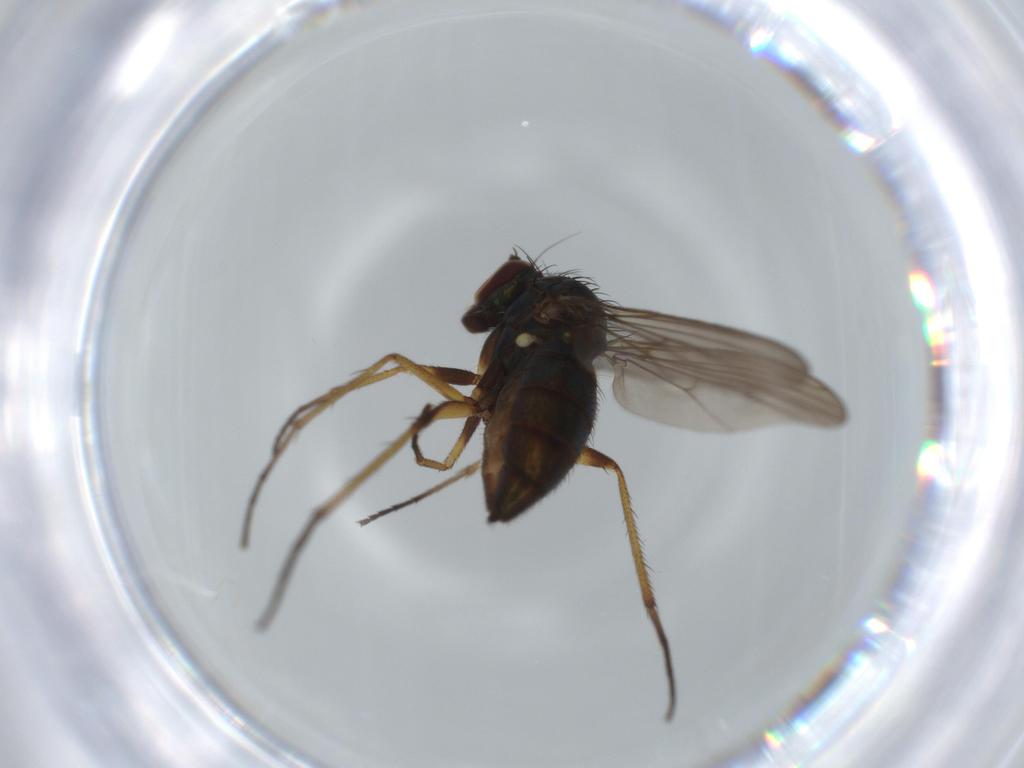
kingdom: Animalia
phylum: Arthropoda
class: Insecta
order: Diptera
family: Dolichopodidae
